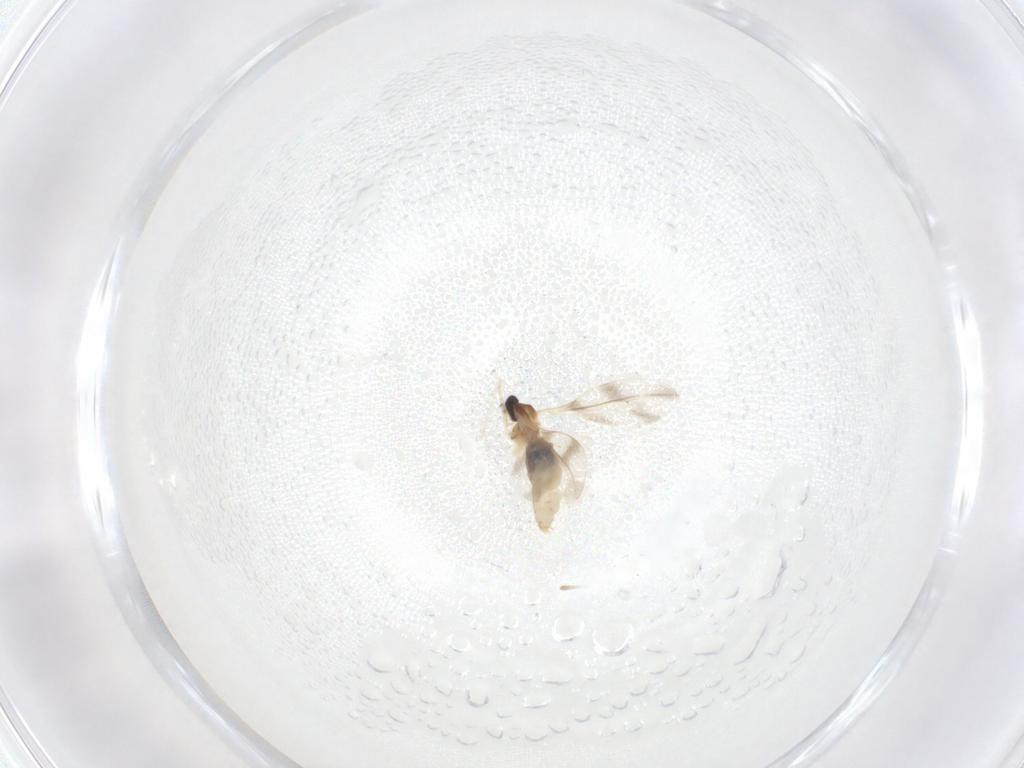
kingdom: Animalia
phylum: Arthropoda
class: Insecta
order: Diptera
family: Cecidomyiidae
